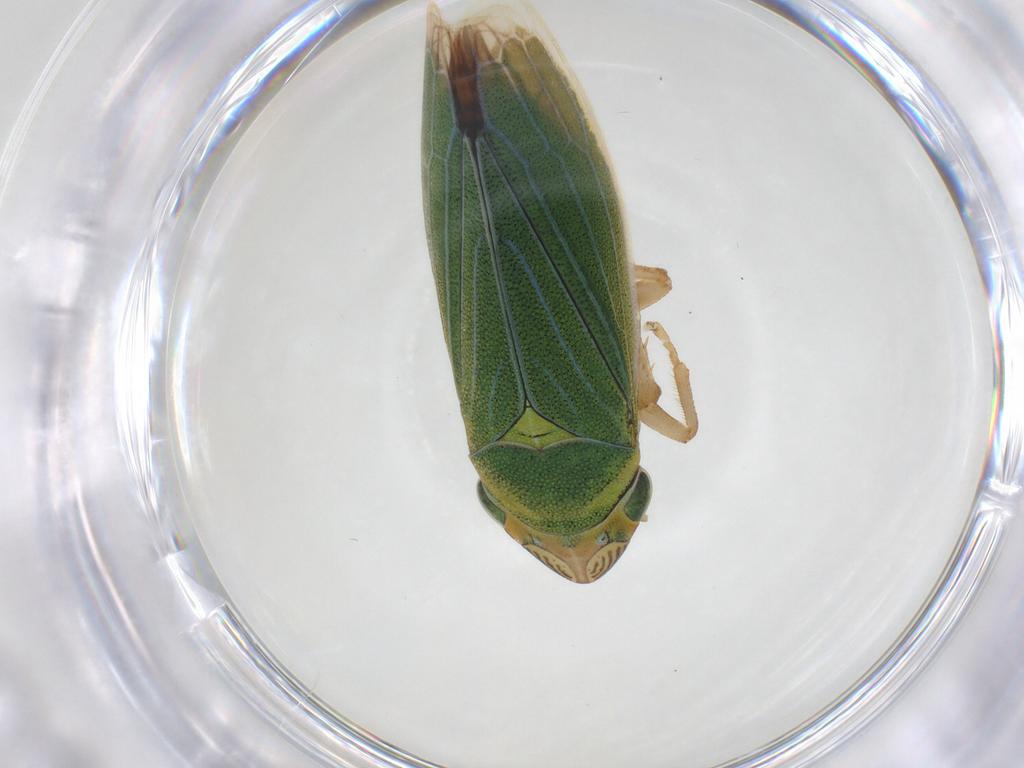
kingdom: Animalia
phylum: Arthropoda
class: Insecta
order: Hemiptera
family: Cicadellidae
